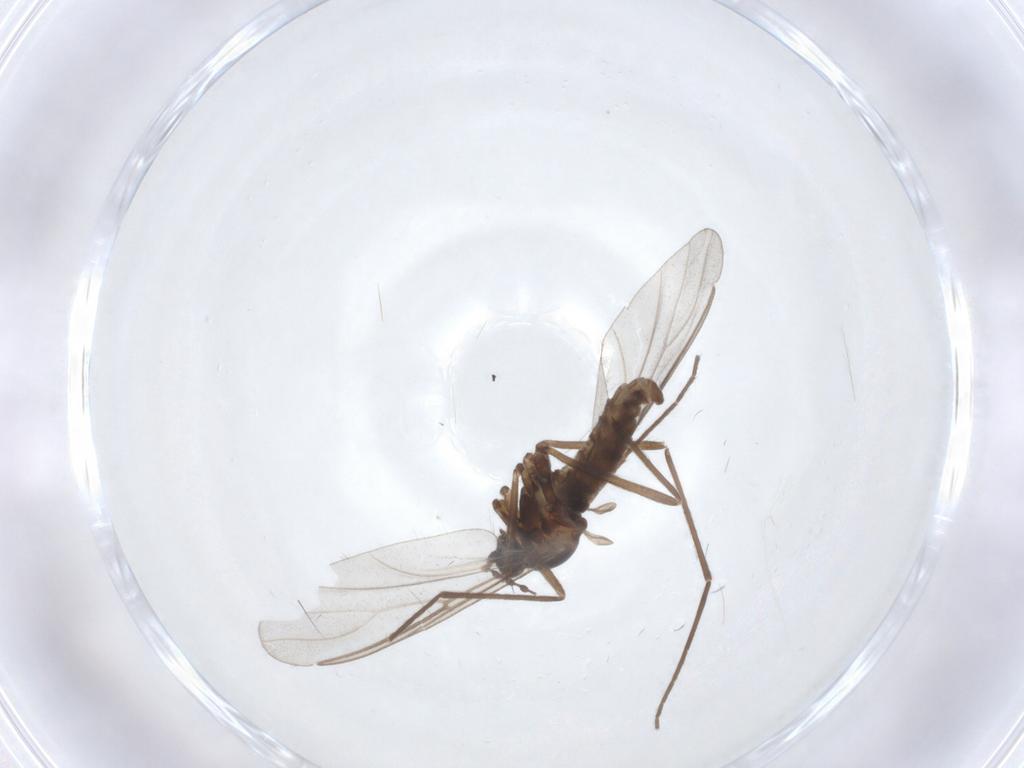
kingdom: Animalia
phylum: Arthropoda
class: Insecta
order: Diptera
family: Cecidomyiidae
